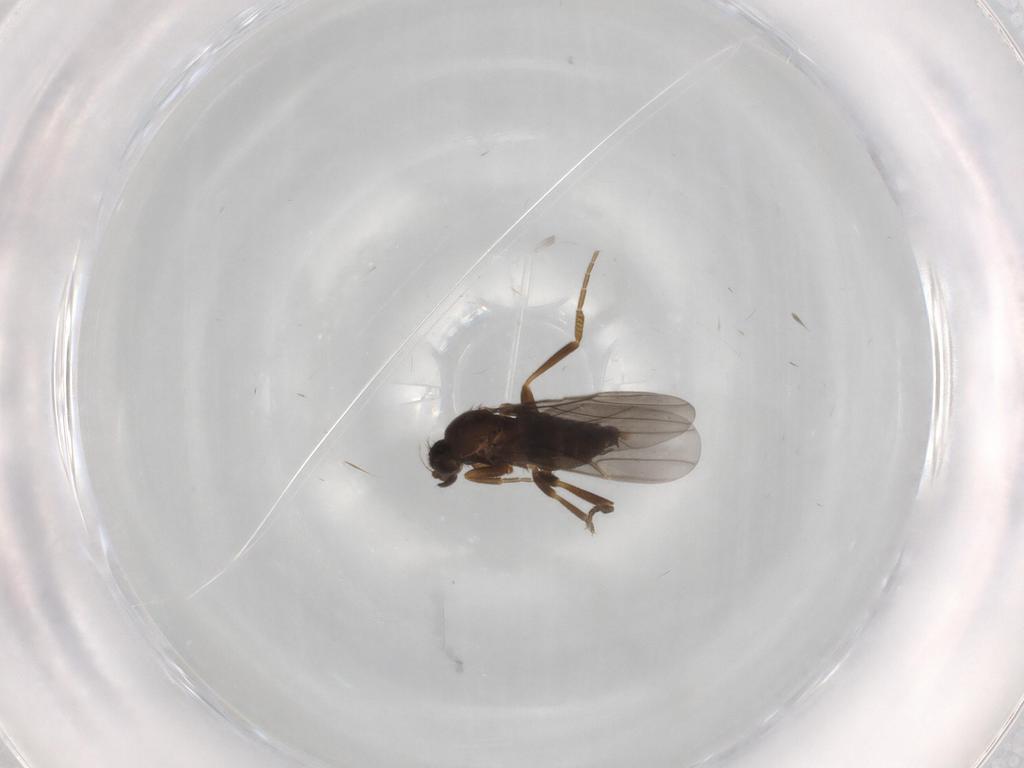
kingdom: Animalia
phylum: Arthropoda
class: Insecta
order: Diptera
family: Phoridae
